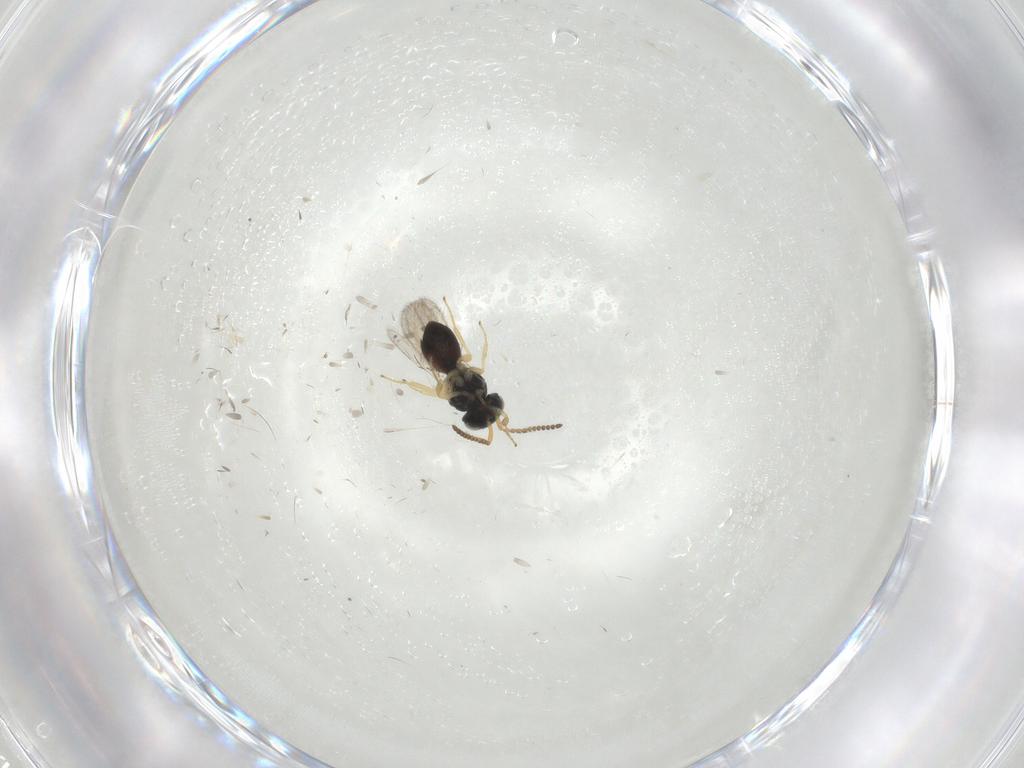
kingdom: Animalia
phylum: Arthropoda
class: Insecta
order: Hymenoptera
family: Scelionidae
